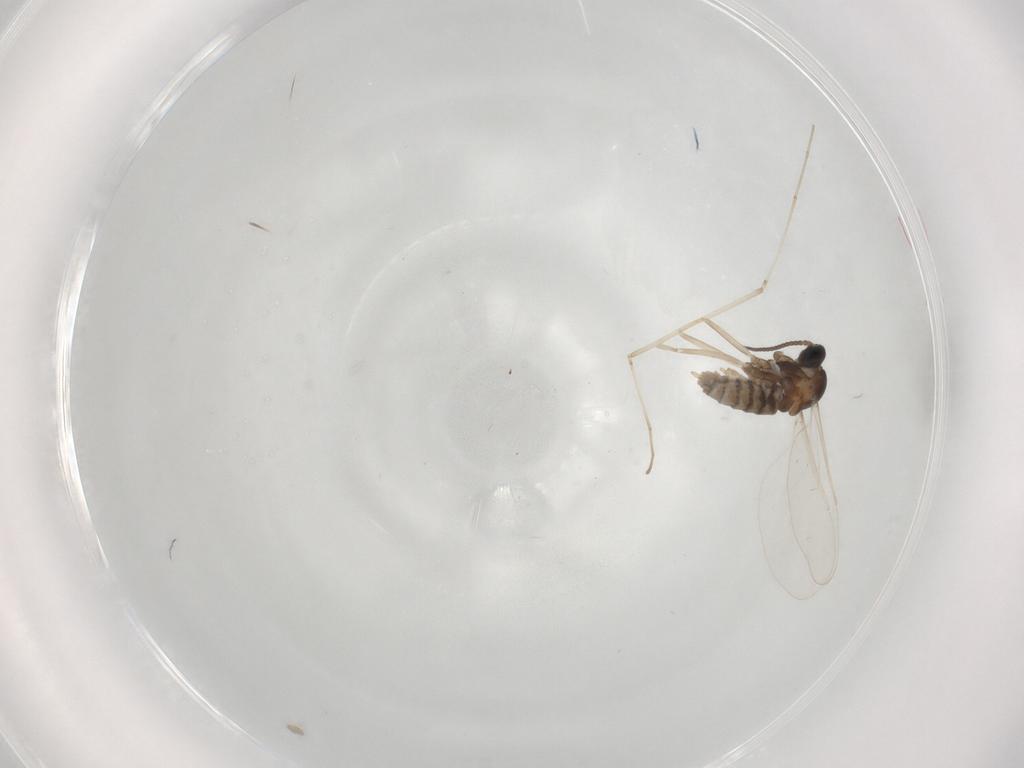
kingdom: Animalia
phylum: Arthropoda
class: Insecta
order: Diptera
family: Cecidomyiidae
